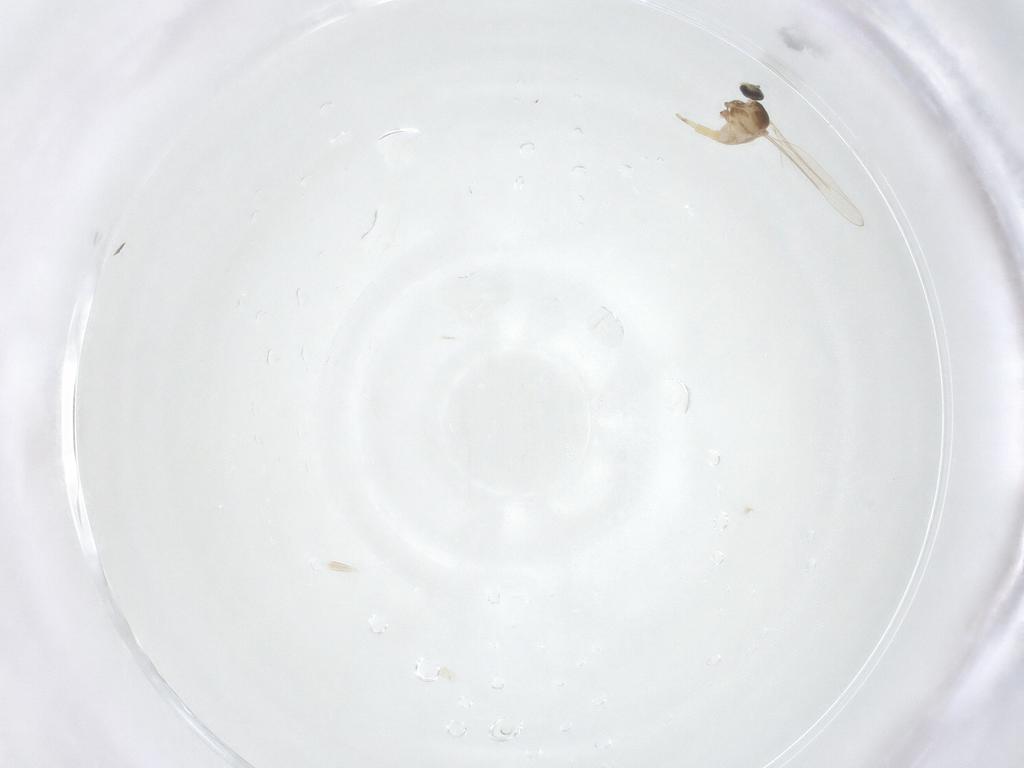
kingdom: Animalia
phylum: Arthropoda
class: Insecta
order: Diptera
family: Cecidomyiidae
